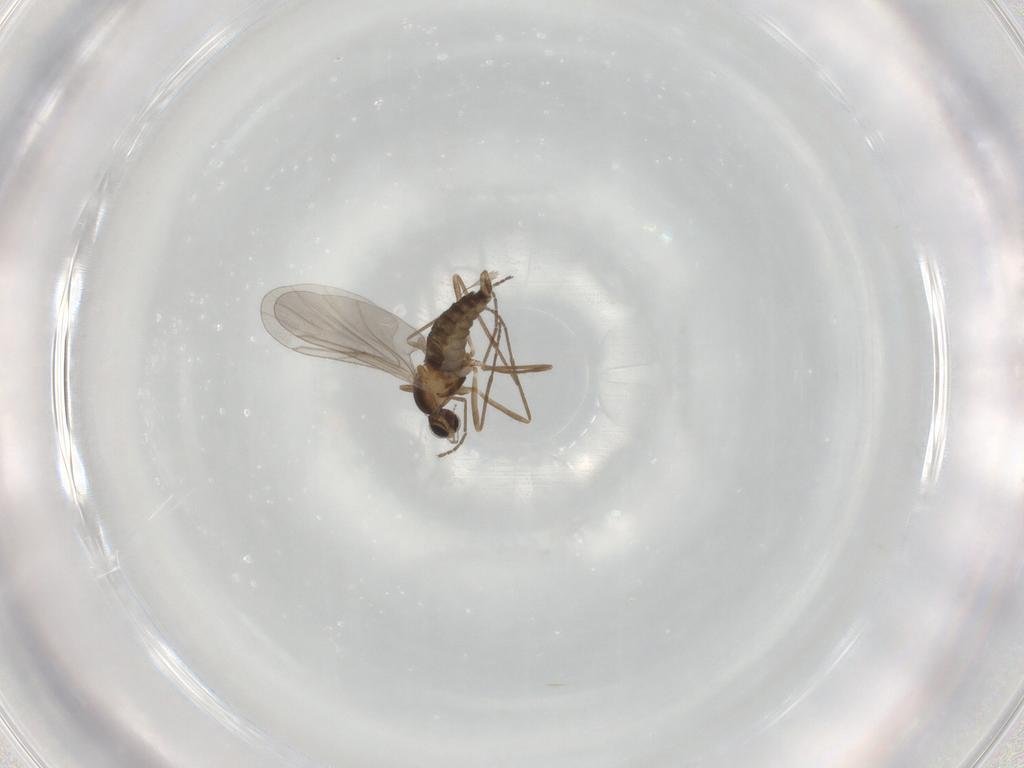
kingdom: Animalia
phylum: Arthropoda
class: Insecta
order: Diptera
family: Cecidomyiidae
